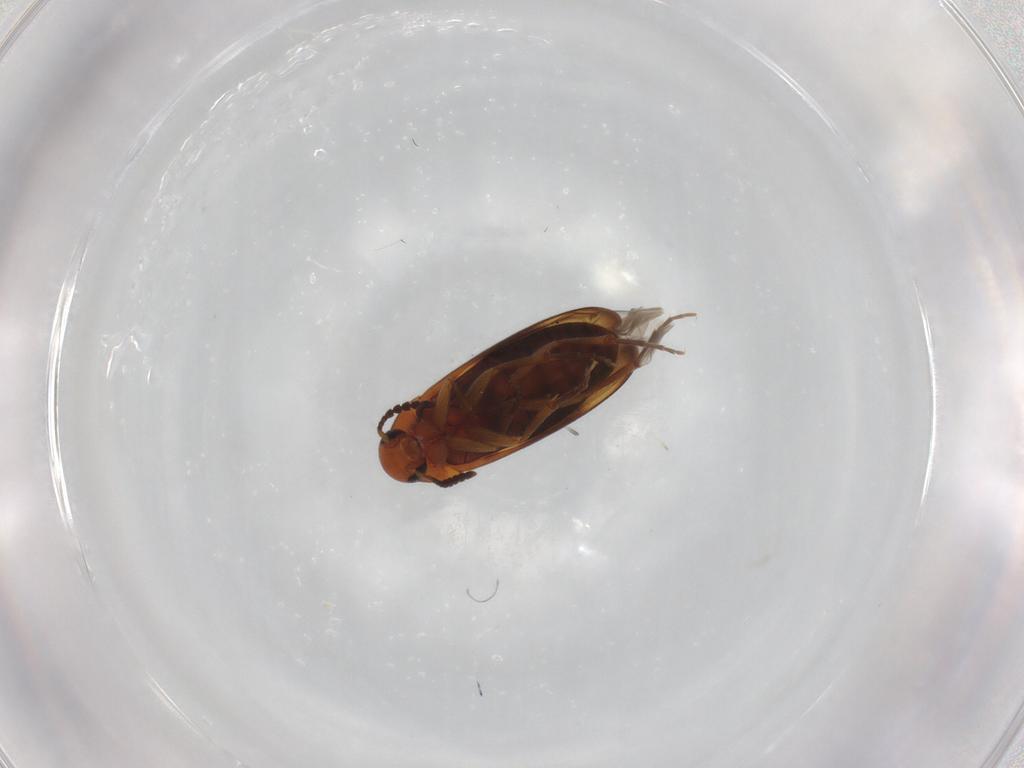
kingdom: Animalia
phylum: Arthropoda
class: Insecta
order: Coleoptera
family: Scraptiidae
